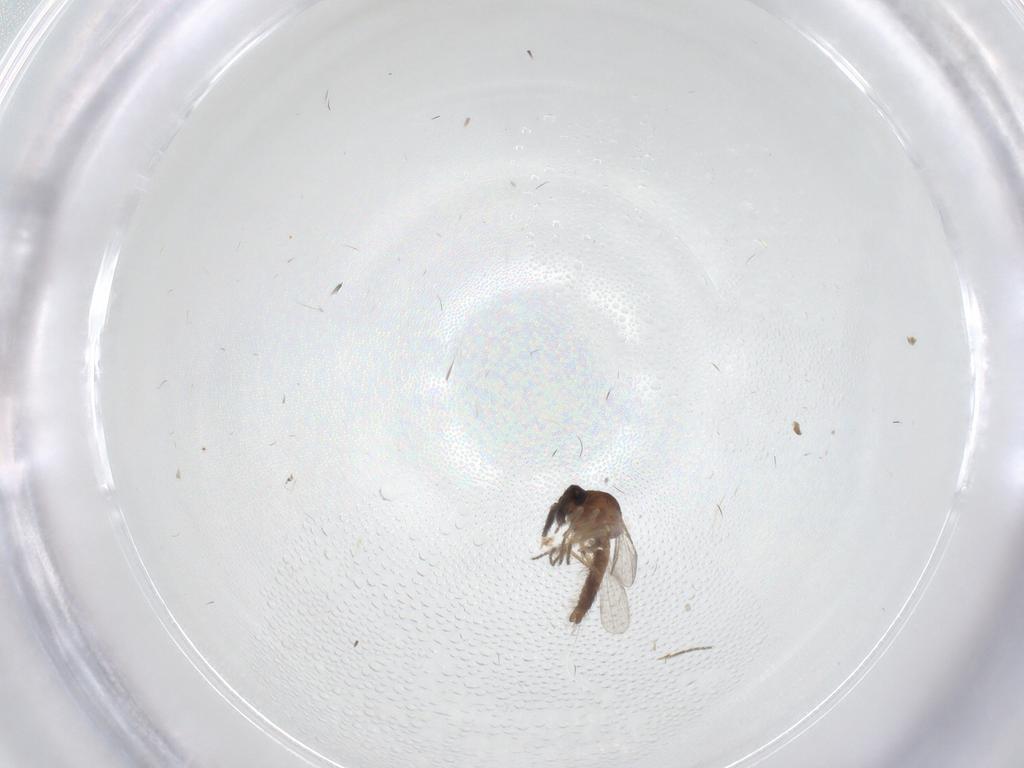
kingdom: Animalia
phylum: Arthropoda
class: Insecta
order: Diptera
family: Ceratopogonidae
